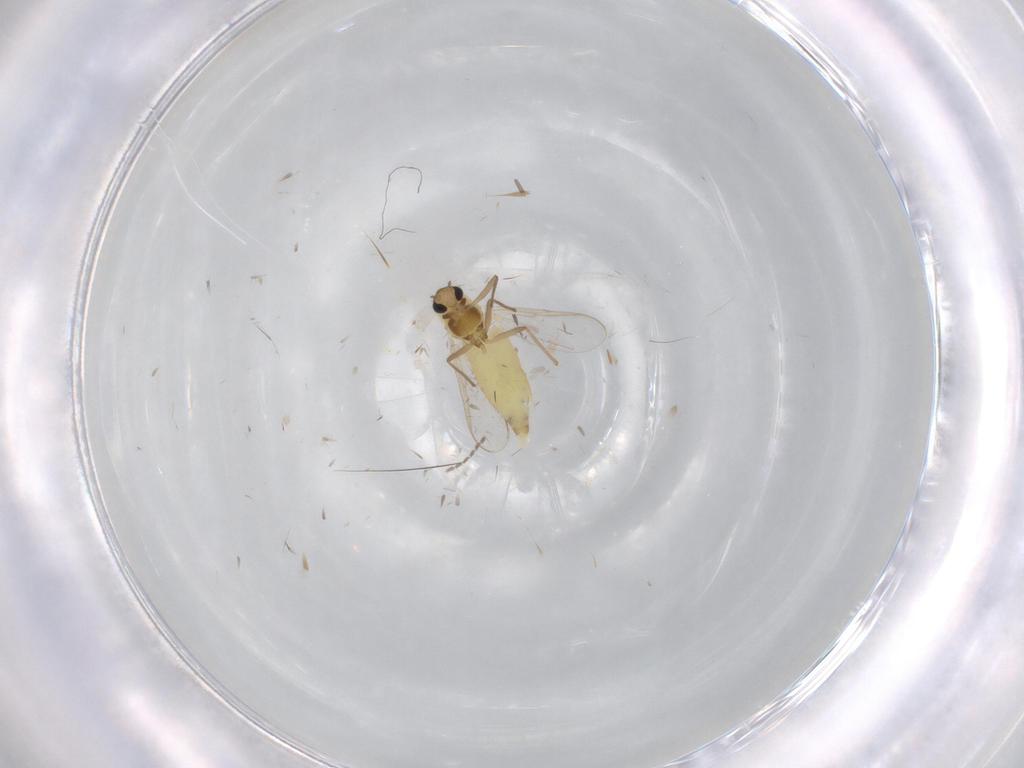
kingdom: Animalia
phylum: Arthropoda
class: Insecta
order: Diptera
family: Chironomidae
